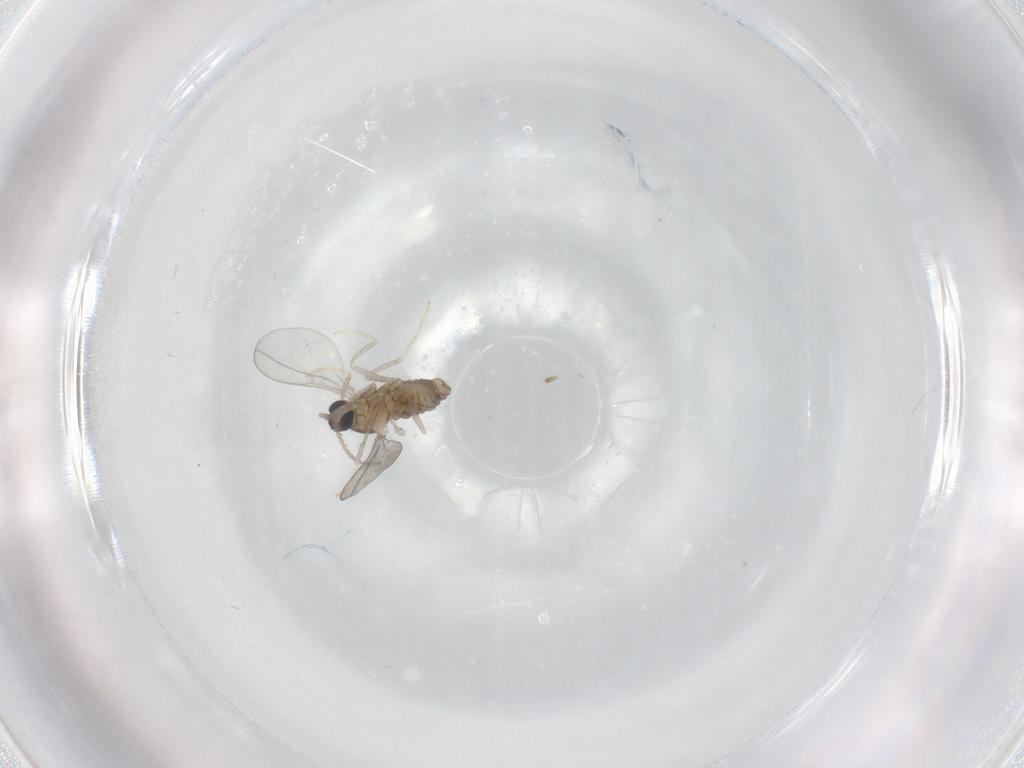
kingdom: Animalia
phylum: Arthropoda
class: Insecta
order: Diptera
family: Cecidomyiidae
